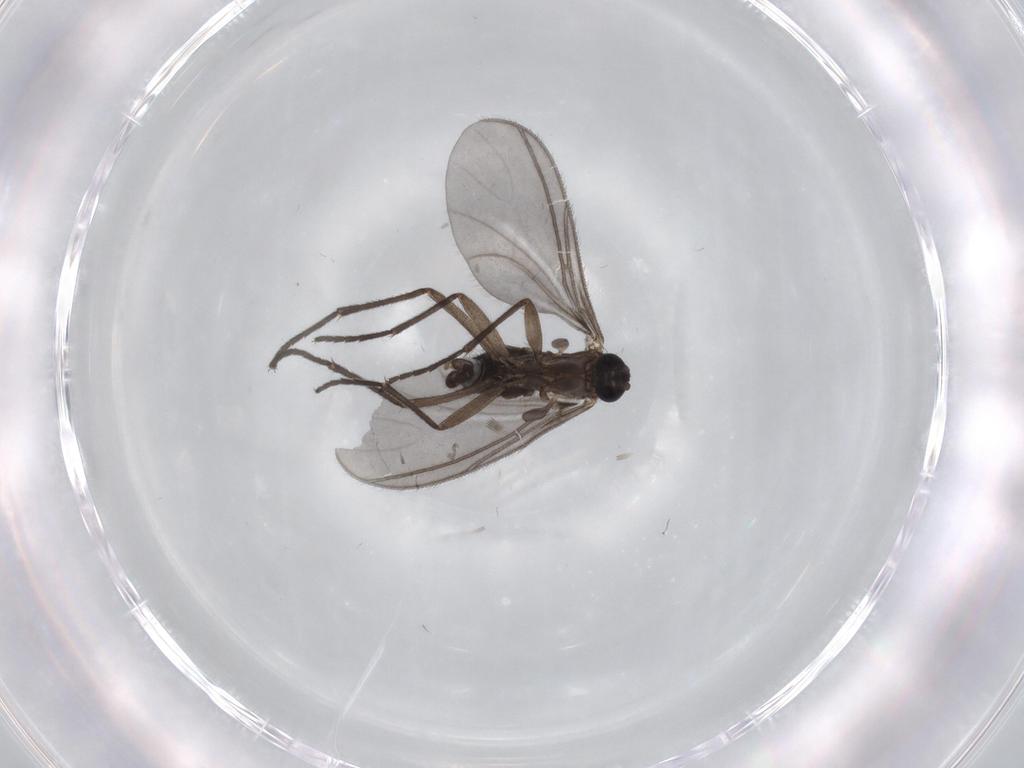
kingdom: Animalia
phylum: Arthropoda
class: Insecta
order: Diptera
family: Sciaridae
